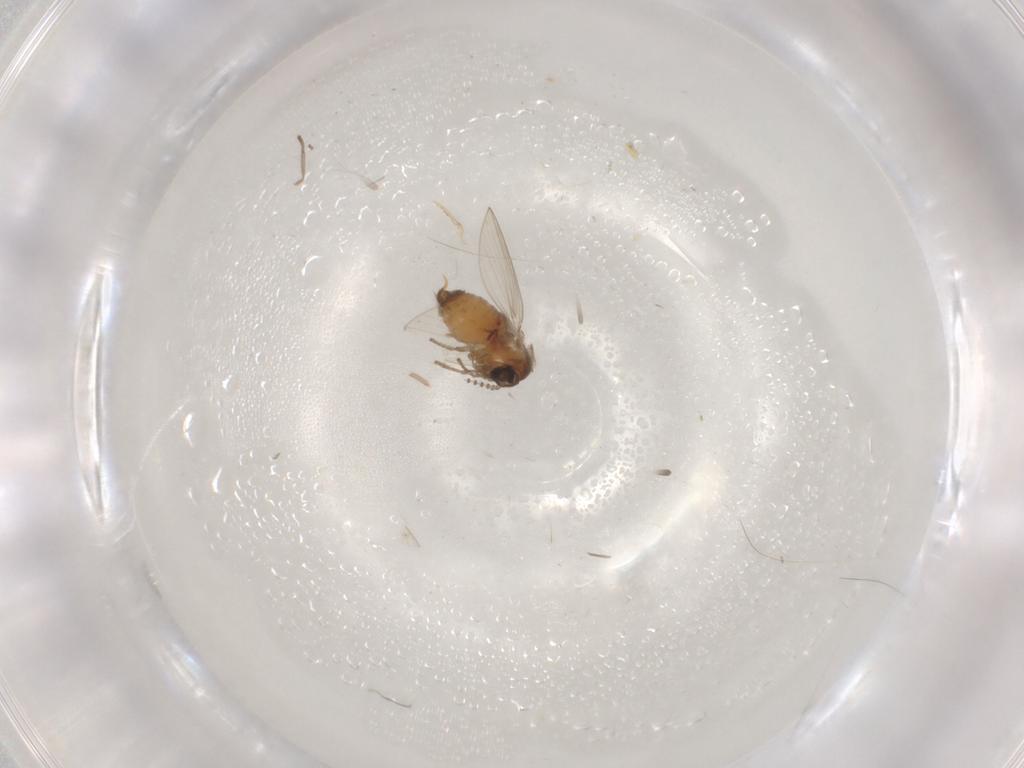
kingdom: Animalia
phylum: Arthropoda
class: Insecta
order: Diptera
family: Psychodidae
